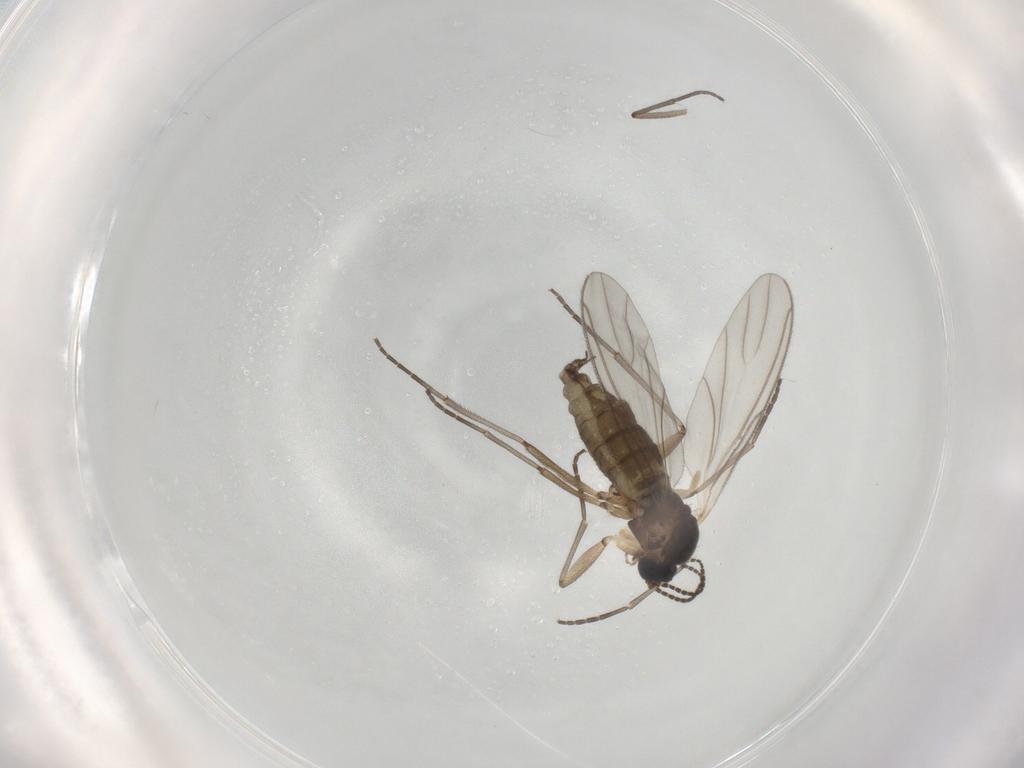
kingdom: Animalia
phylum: Arthropoda
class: Insecta
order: Diptera
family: Sciaridae
